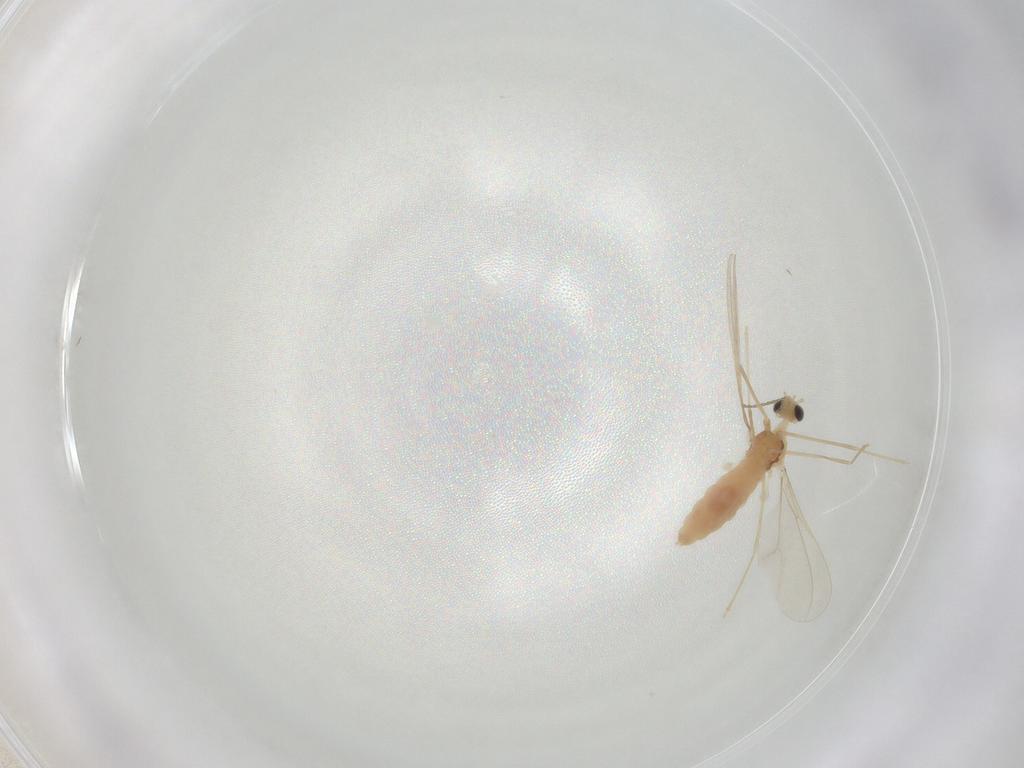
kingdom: Animalia
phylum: Arthropoda
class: Insecta
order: Diptera
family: Cecidomyiidae
